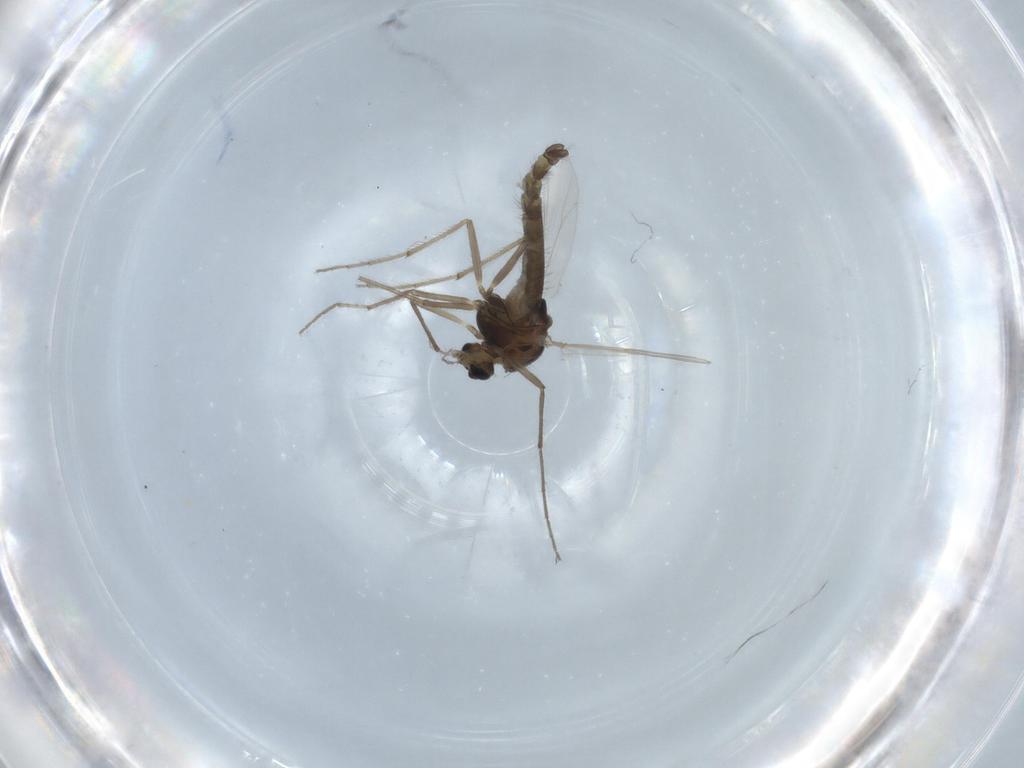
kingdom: Animalia
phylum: Arthropoda
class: Insecta
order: Diptera
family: Chironomidae
